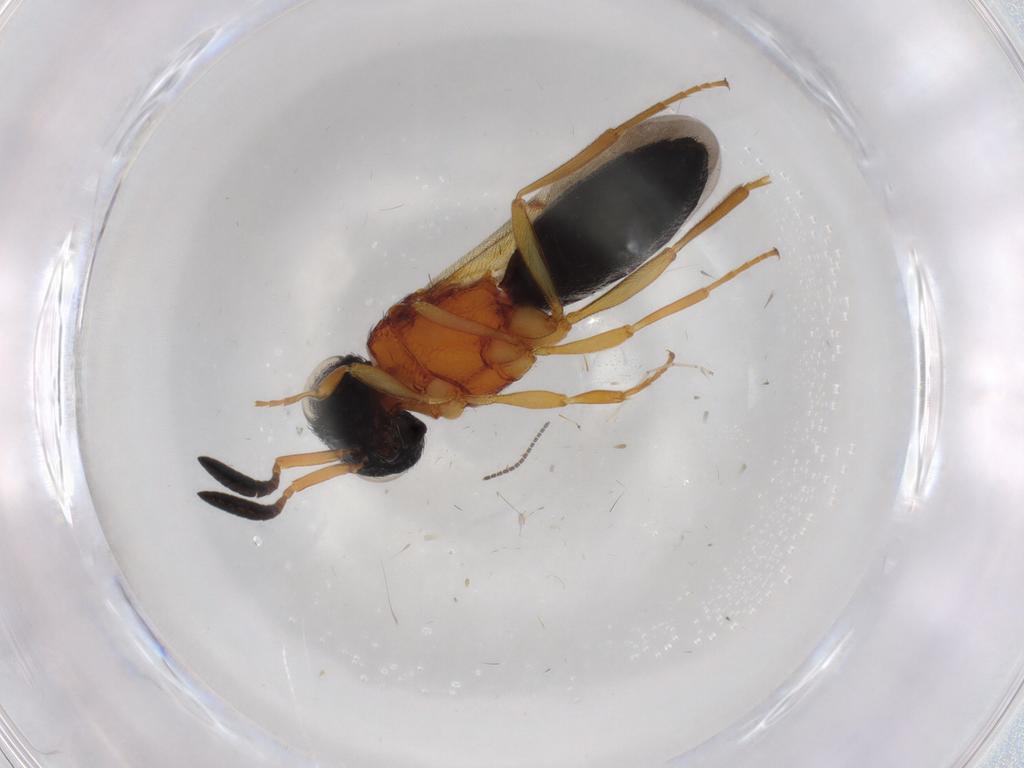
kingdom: Animalia
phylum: Arthropoda
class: Insecta
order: Hymenoptera
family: Scelionidae
